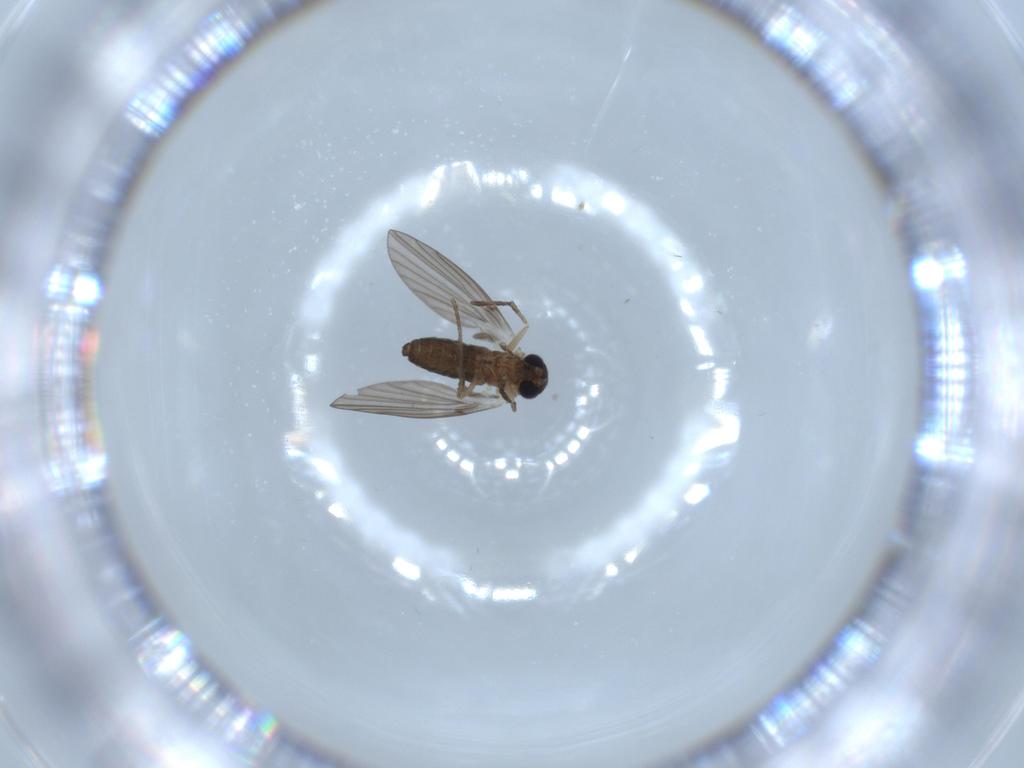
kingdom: Animalia
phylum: Arthropoda
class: Insecta
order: Diptera
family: Psychodidae
